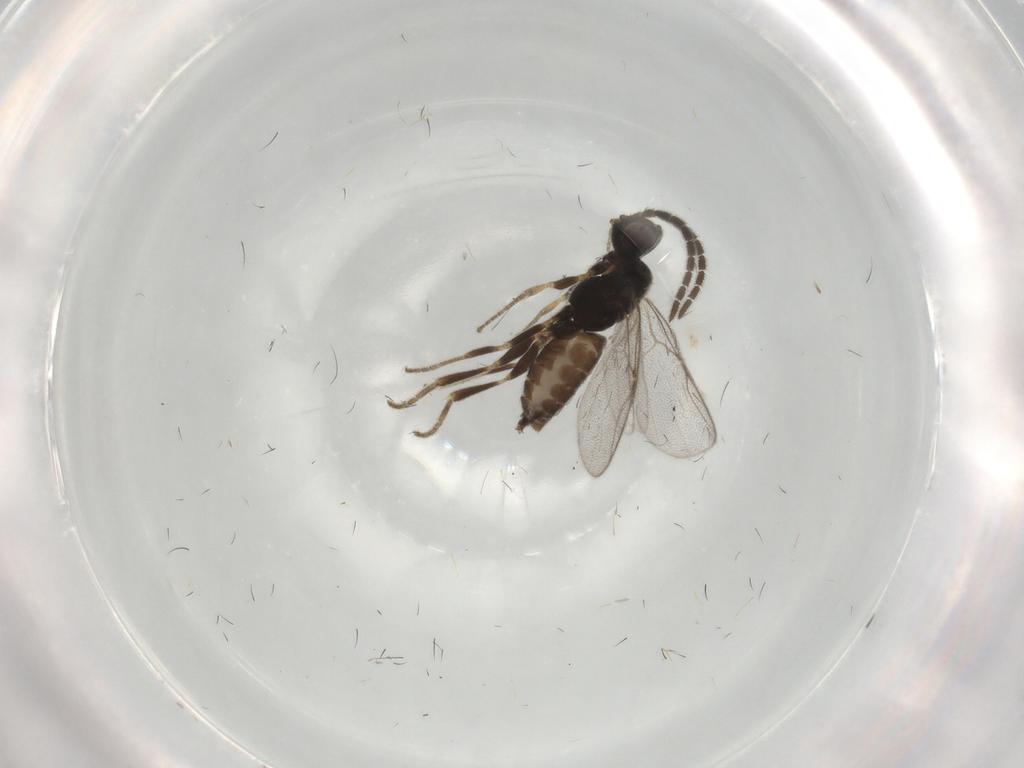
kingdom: Animalia
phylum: Arthropoda
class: Insecta
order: Hymenoptera
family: Dryinidae
